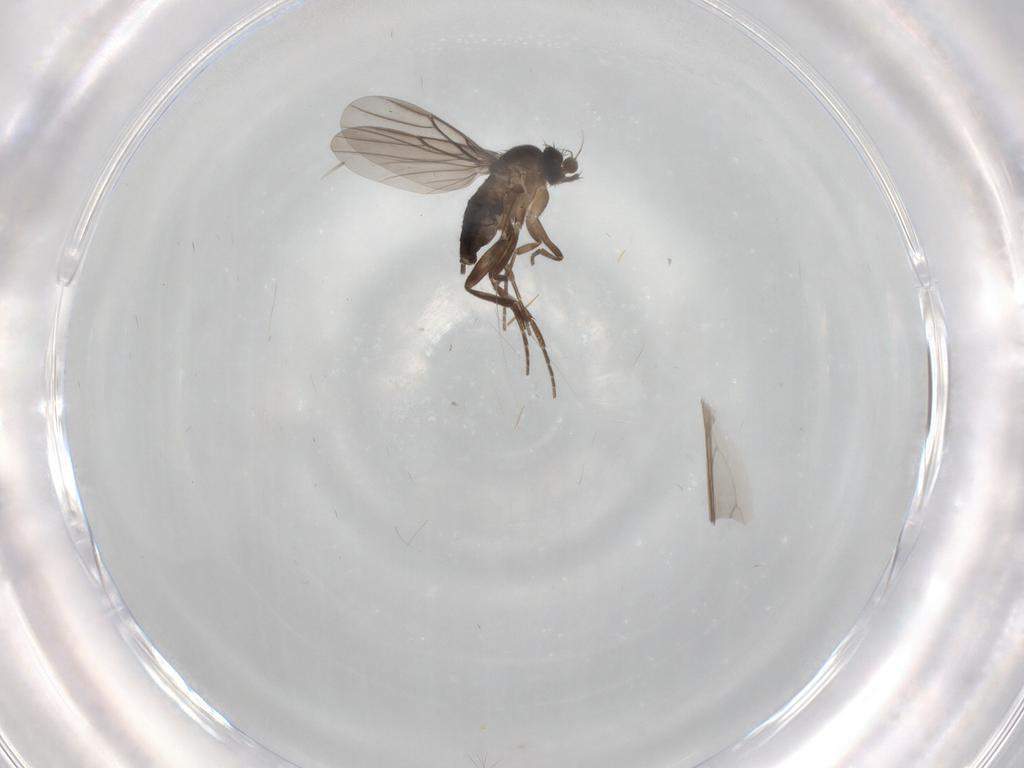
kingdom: Animalia
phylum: Arthropoda
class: Insecta
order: Diptera
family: Phoridae
